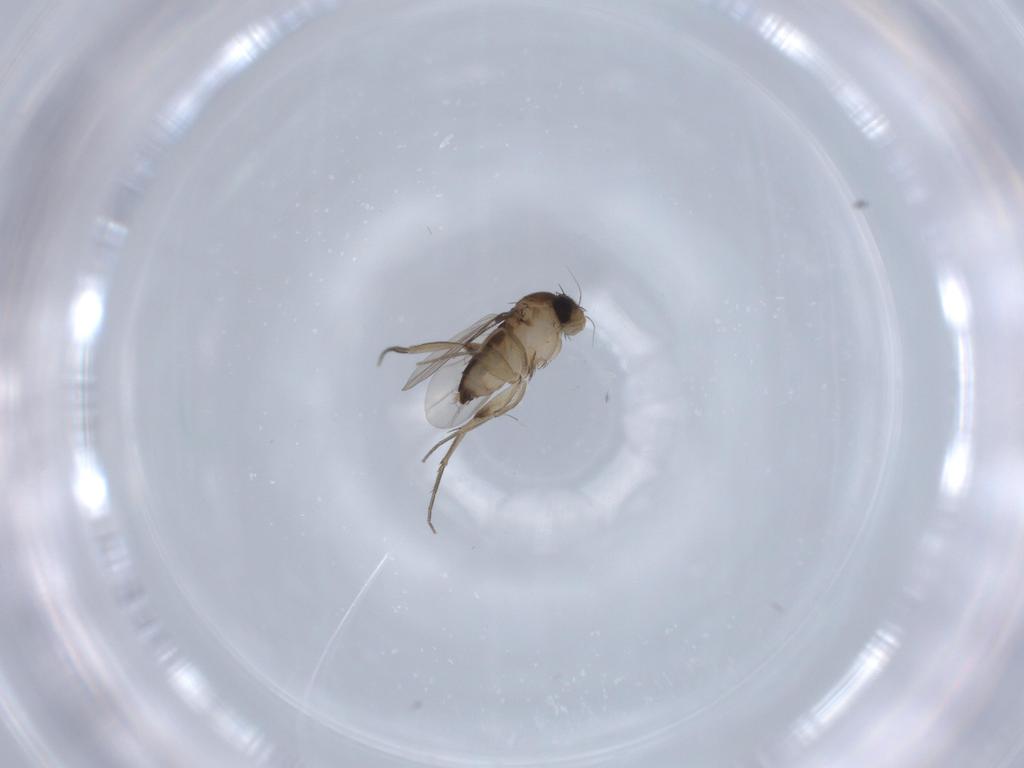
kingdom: Animalia
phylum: Arthropoda
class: Insecta
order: Diptera
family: Phoridae
